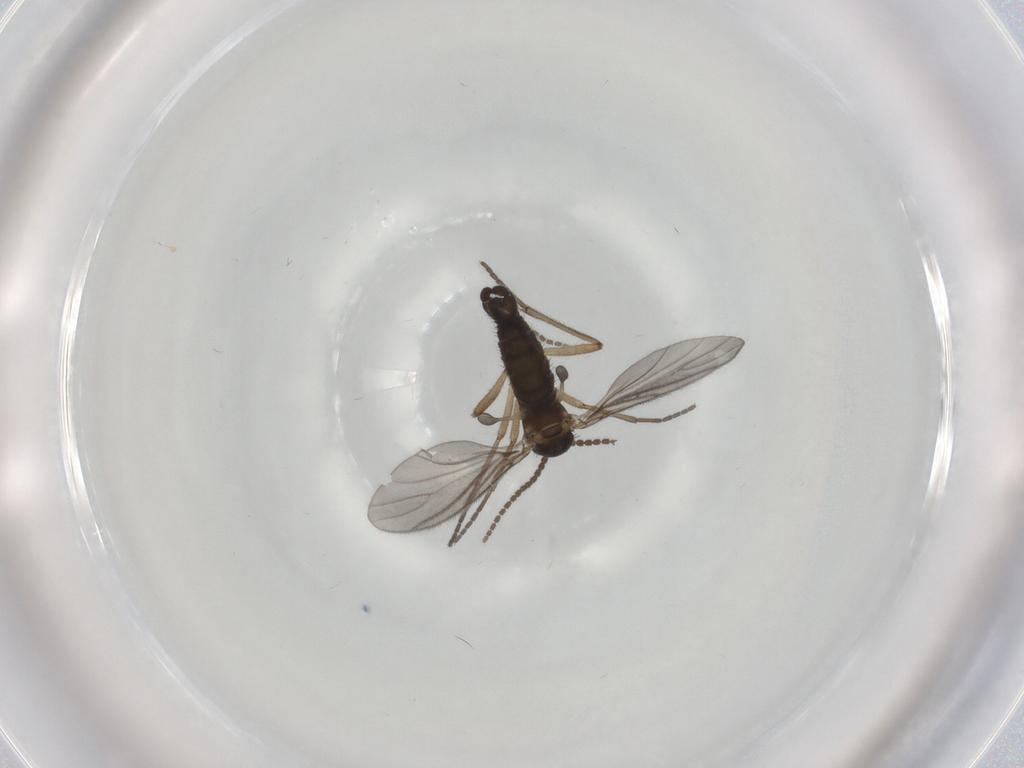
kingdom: Animalia
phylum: Arthropoda
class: Insecta
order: Diptera
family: Sciaridae
